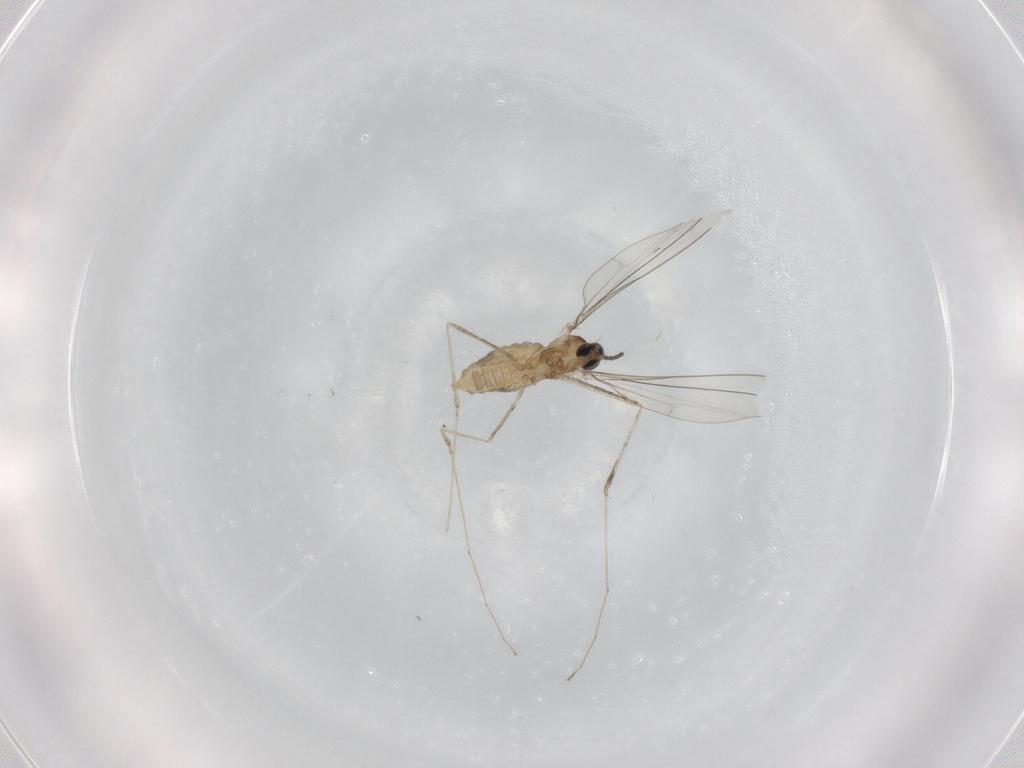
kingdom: Animalia
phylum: Arthropoda
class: Insecta
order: Diptera
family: Cecidomyiidae
